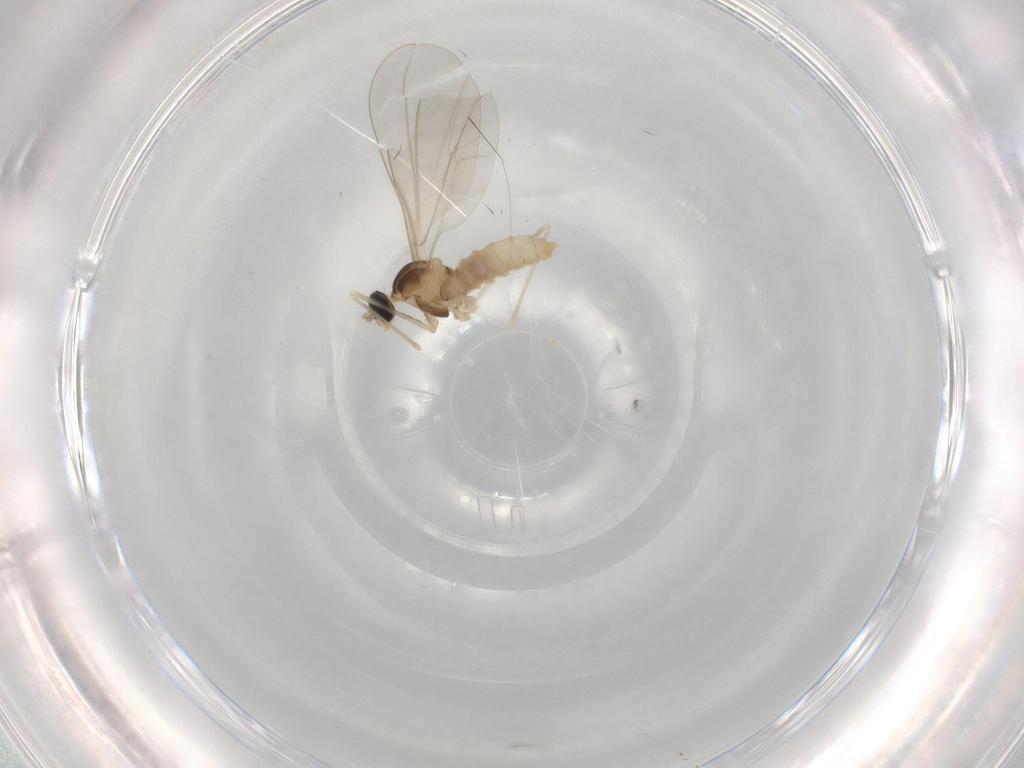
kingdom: Animalia
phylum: Arthropoda
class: Insecta
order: Diptera
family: Cecidomyiidae
